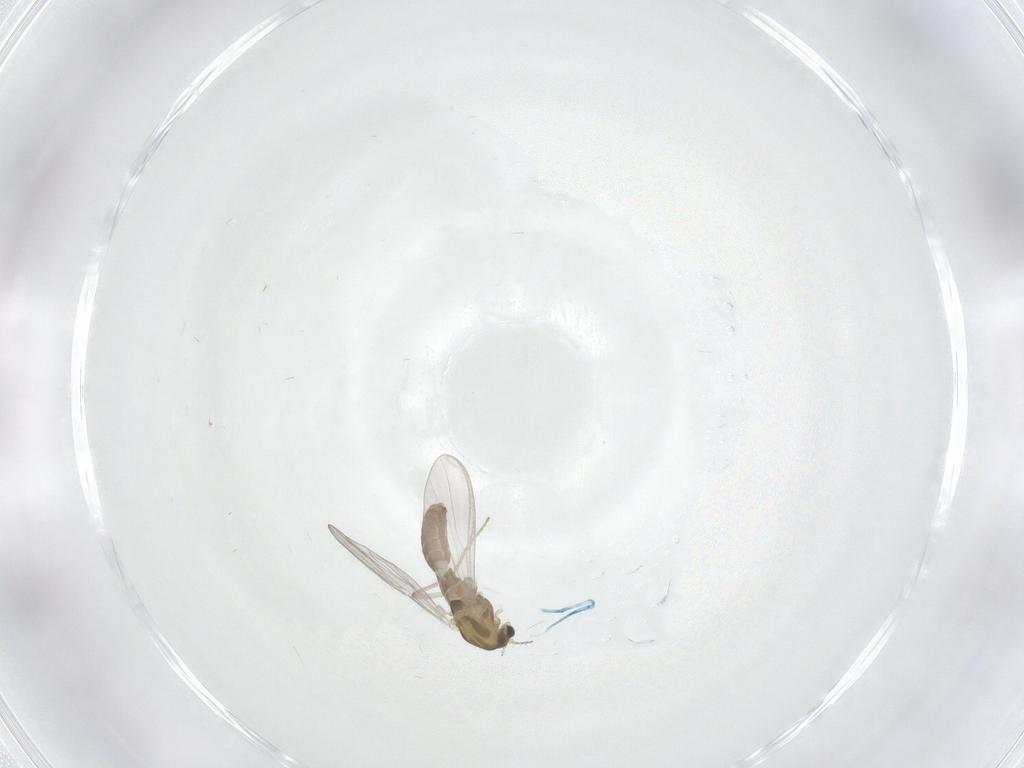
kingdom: Animalia
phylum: Arthropoda
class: Insecta
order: Diptera
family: Chironomidae
